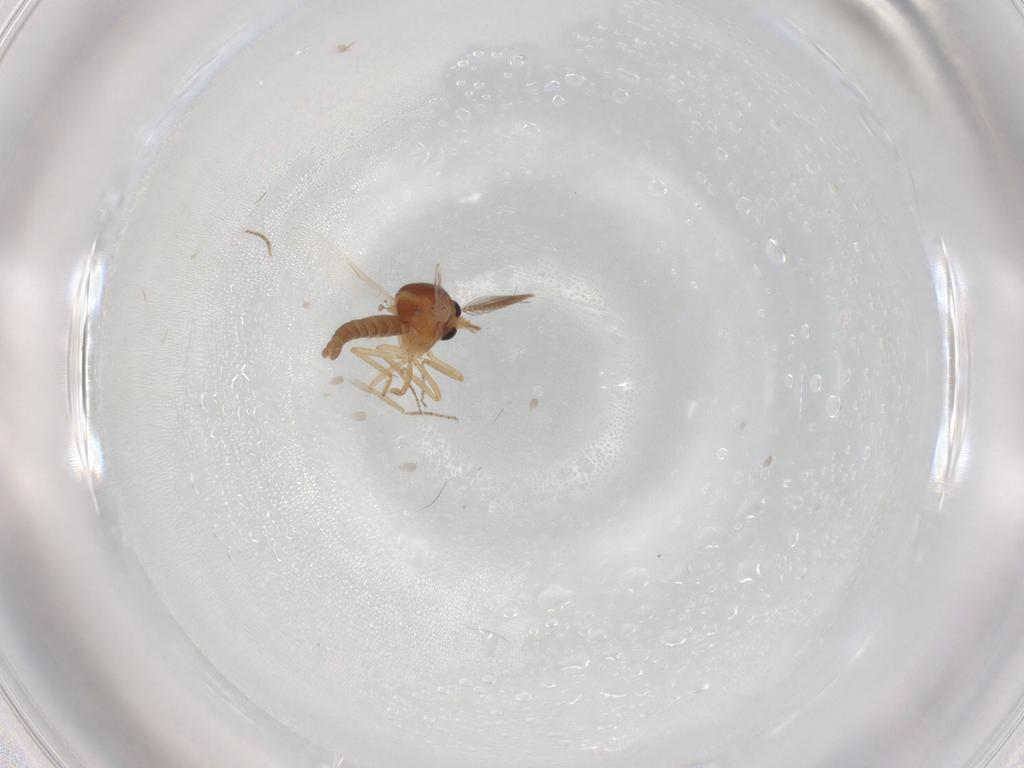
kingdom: Animalia
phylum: Arthropoda
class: Insecta
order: Diptera
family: Ceratopogonidae
